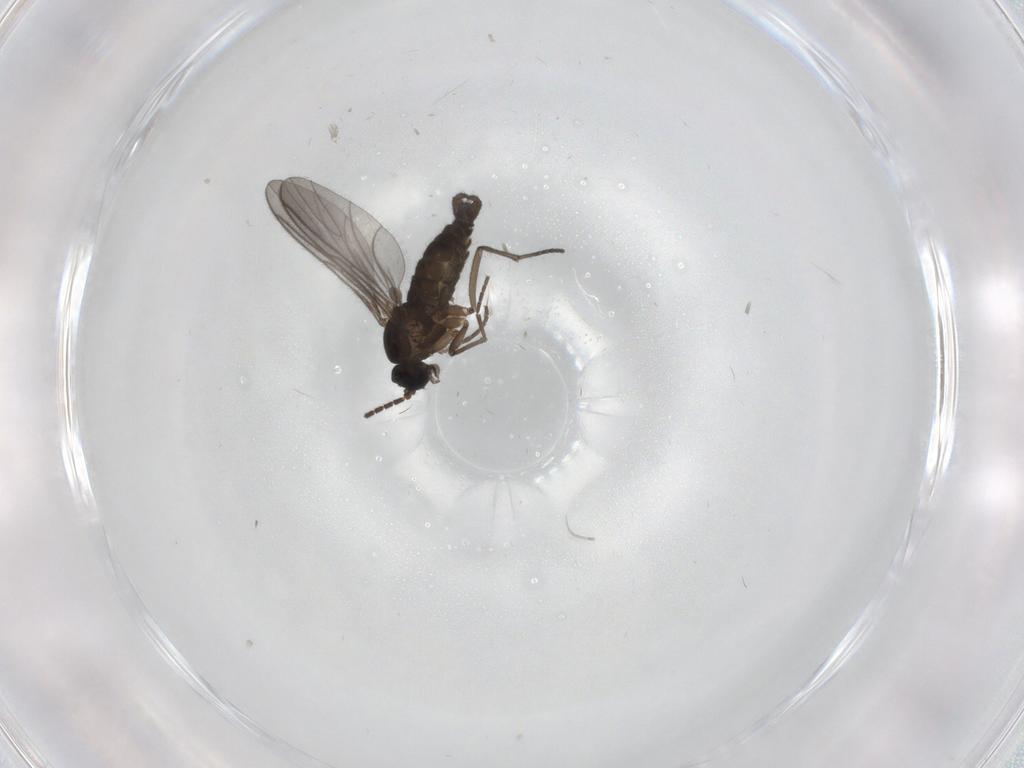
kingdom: Animalia
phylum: Arthropoda
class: Insecta
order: Diptera
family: Sciaridae
